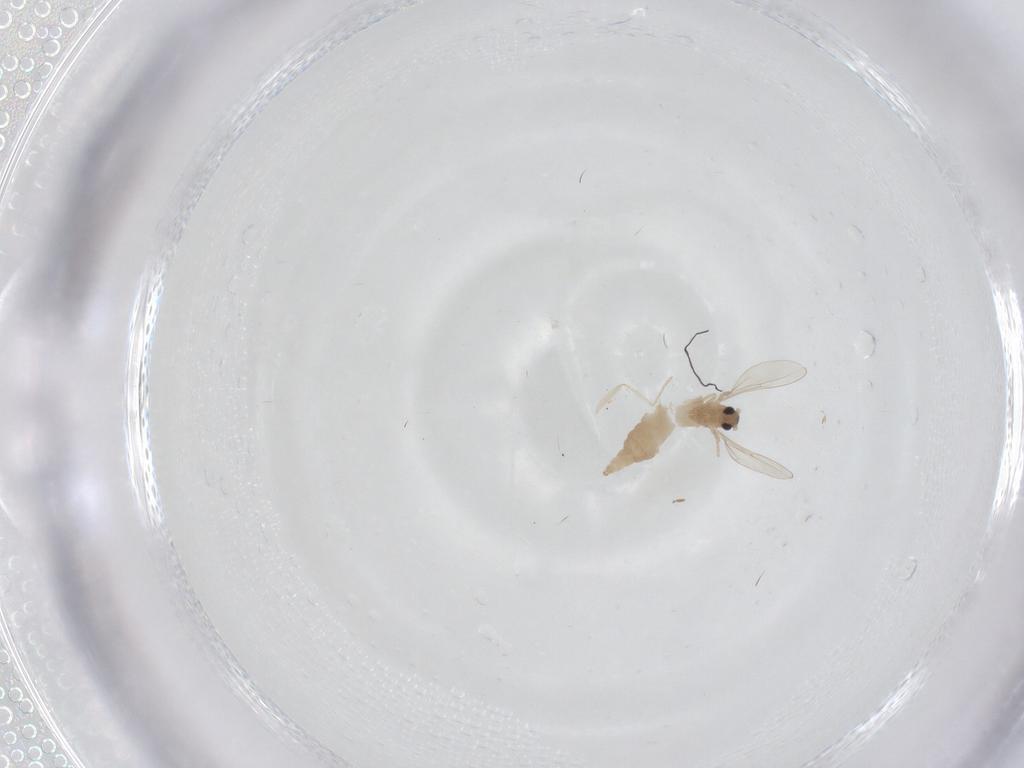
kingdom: Animalia
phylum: Arthropoda
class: Insecta
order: Diptera
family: Cecidomyiidae
